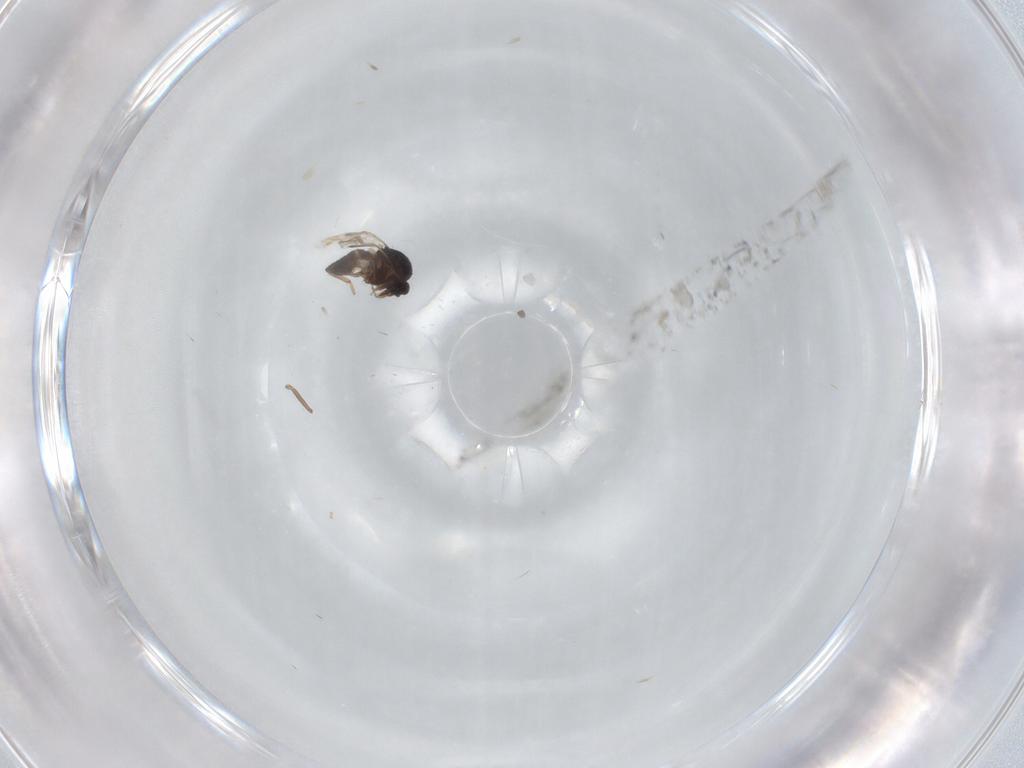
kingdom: Animalia
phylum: Arthropoda
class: Insecta
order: Diptera
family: Ceratopogonidae
